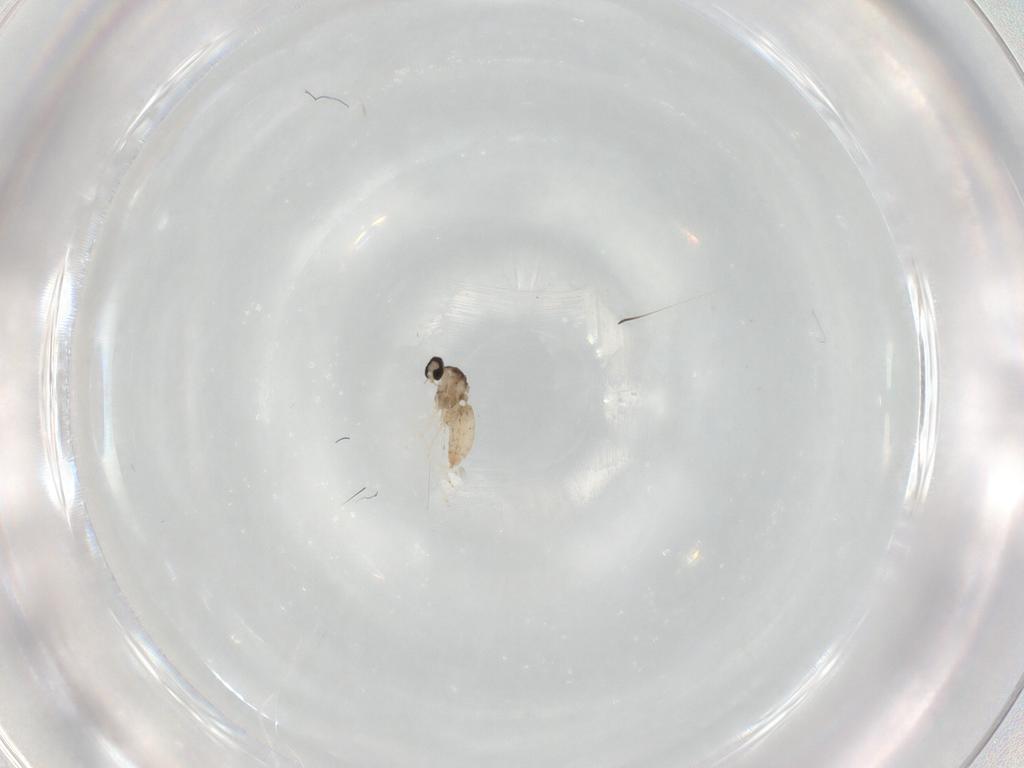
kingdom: Animalia
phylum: Arthropoda
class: Insecta
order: Diptera
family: Cecidomyiidae
